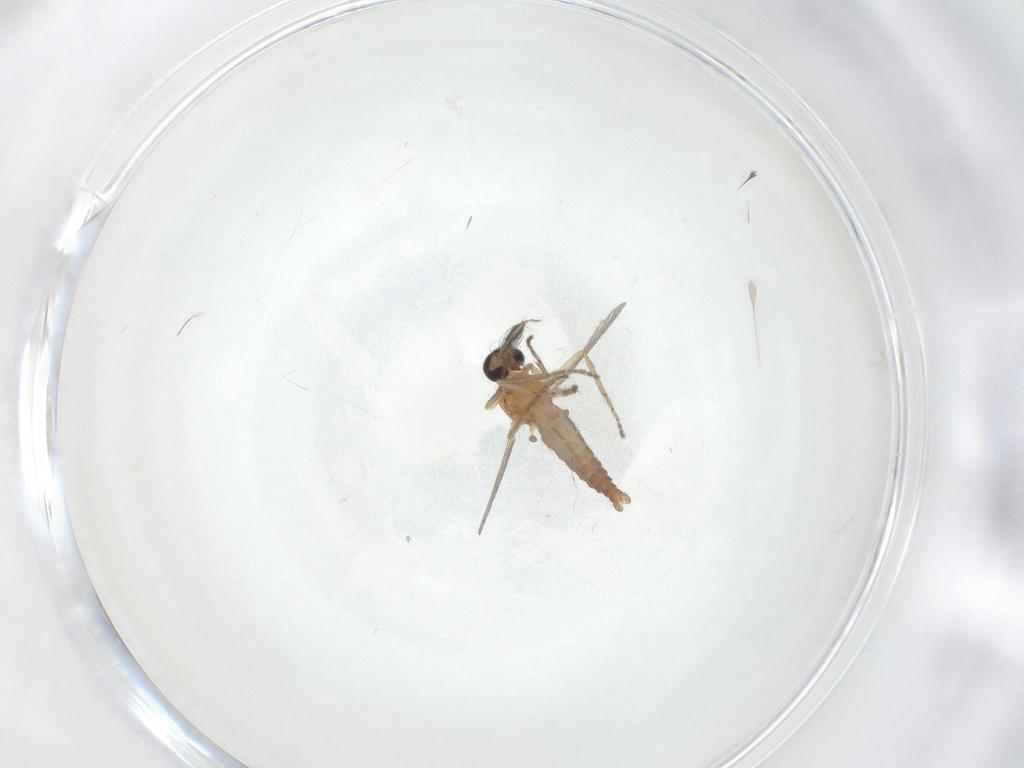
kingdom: Animalia
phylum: Arthropoda
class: Insecta
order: Diptera
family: Ceratopogonidae
